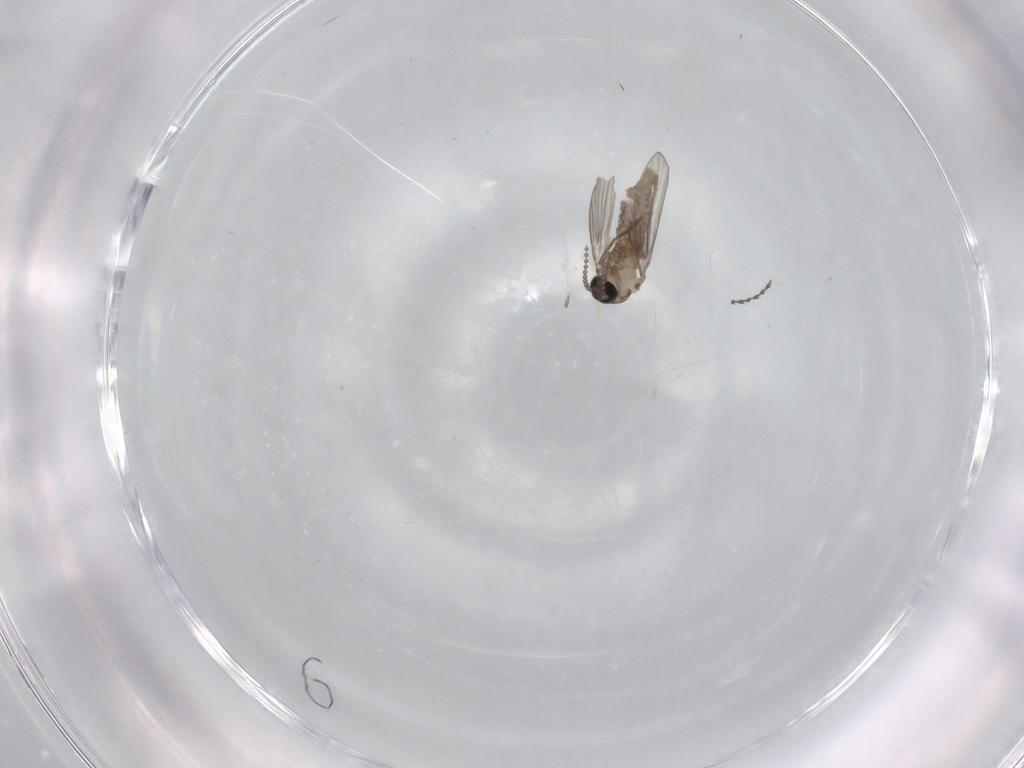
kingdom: Animalia
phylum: Arthropoda
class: Insecta
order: Diptera
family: Psychodidae
